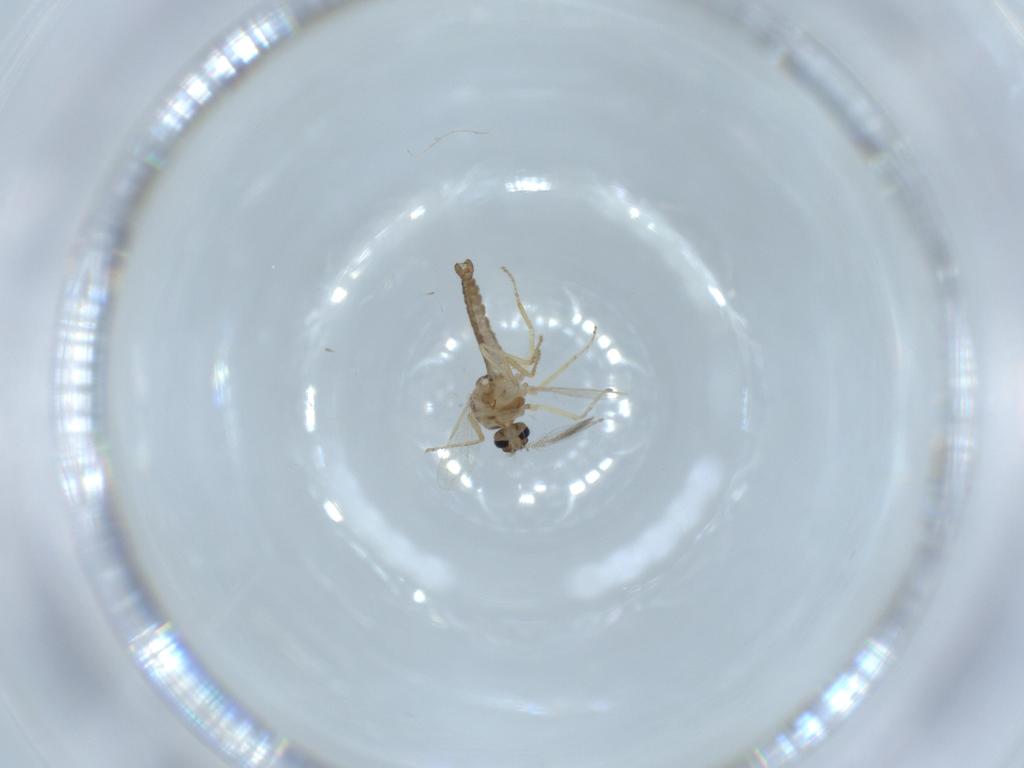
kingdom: Animalia
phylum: Arthropoda
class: Insecta
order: Diptera
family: Ceratopogonidae
